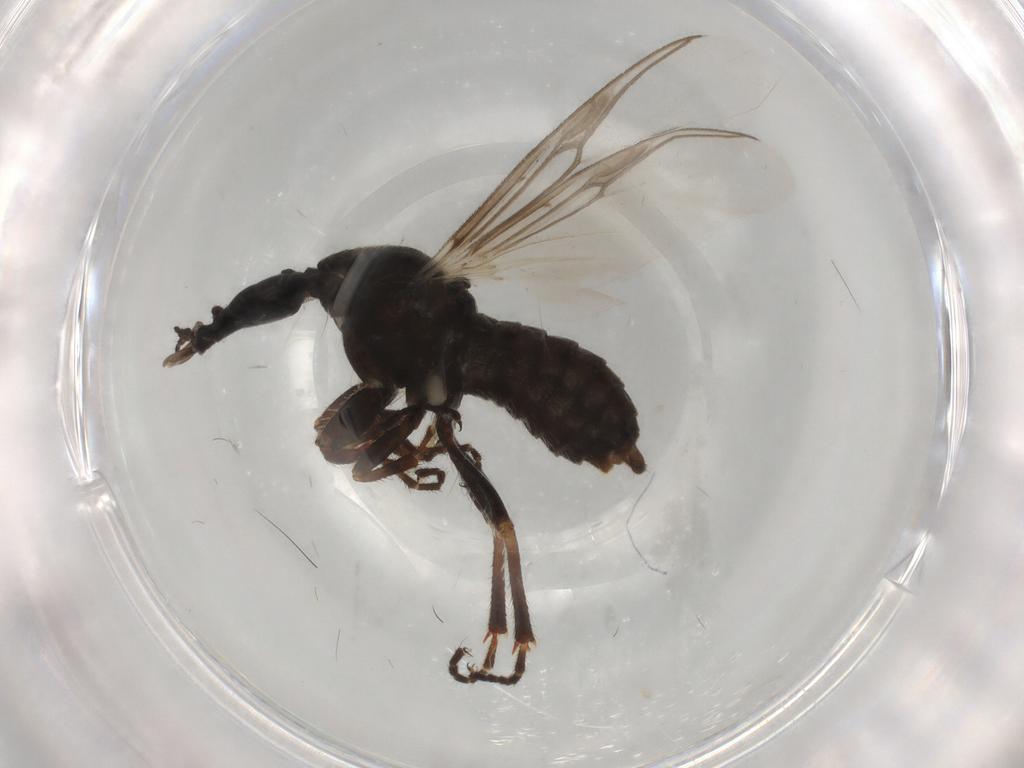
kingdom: Animalia
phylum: Arthropoda
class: Insecta
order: Diptera
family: Bibionidae
